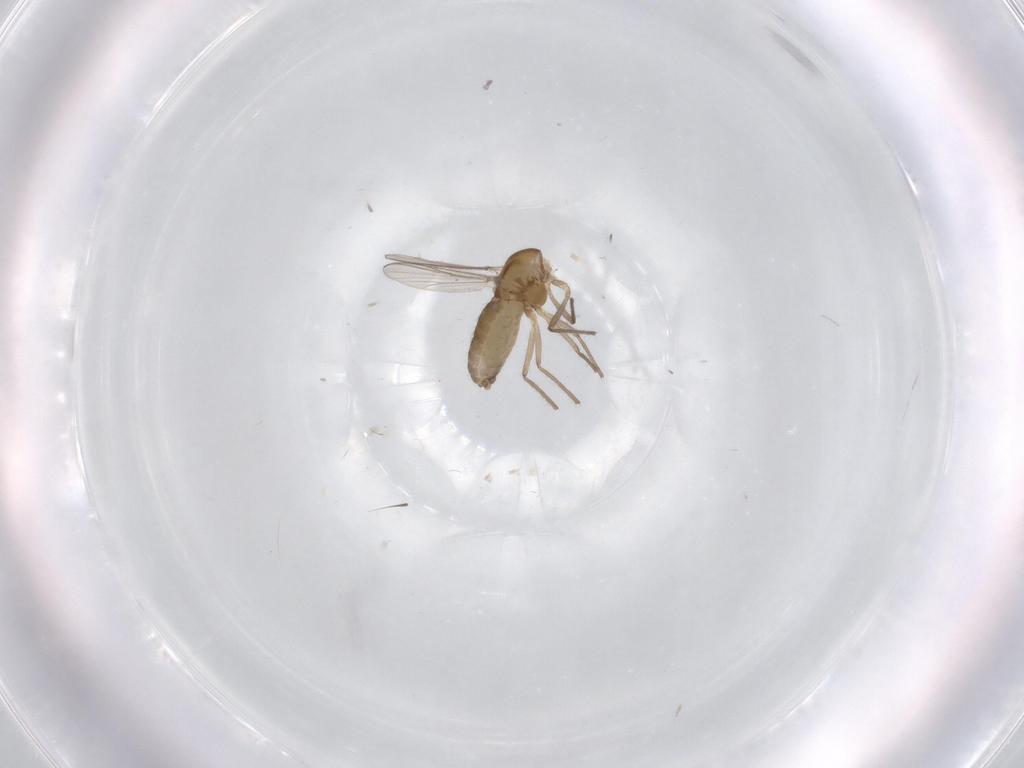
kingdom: Animalia
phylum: Arthropoda
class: Insecta
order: Diptera
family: Chironomidae
